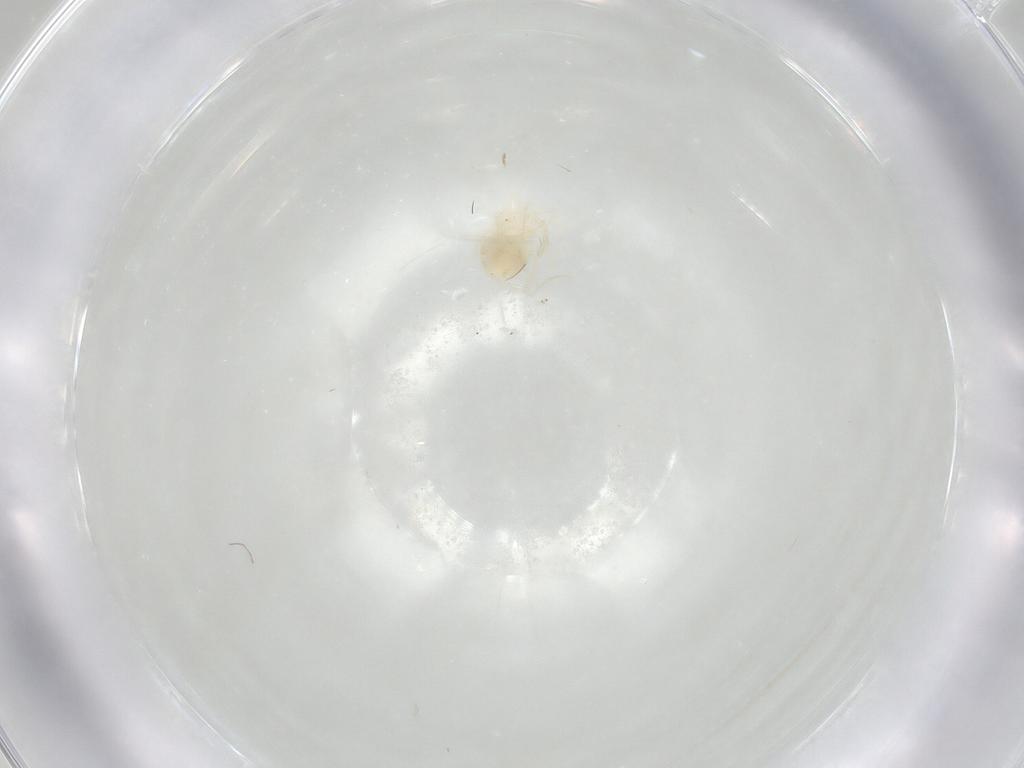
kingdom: Animalia
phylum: Arthropoda
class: Arachnida
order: Trombidiformes
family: Anystidae
